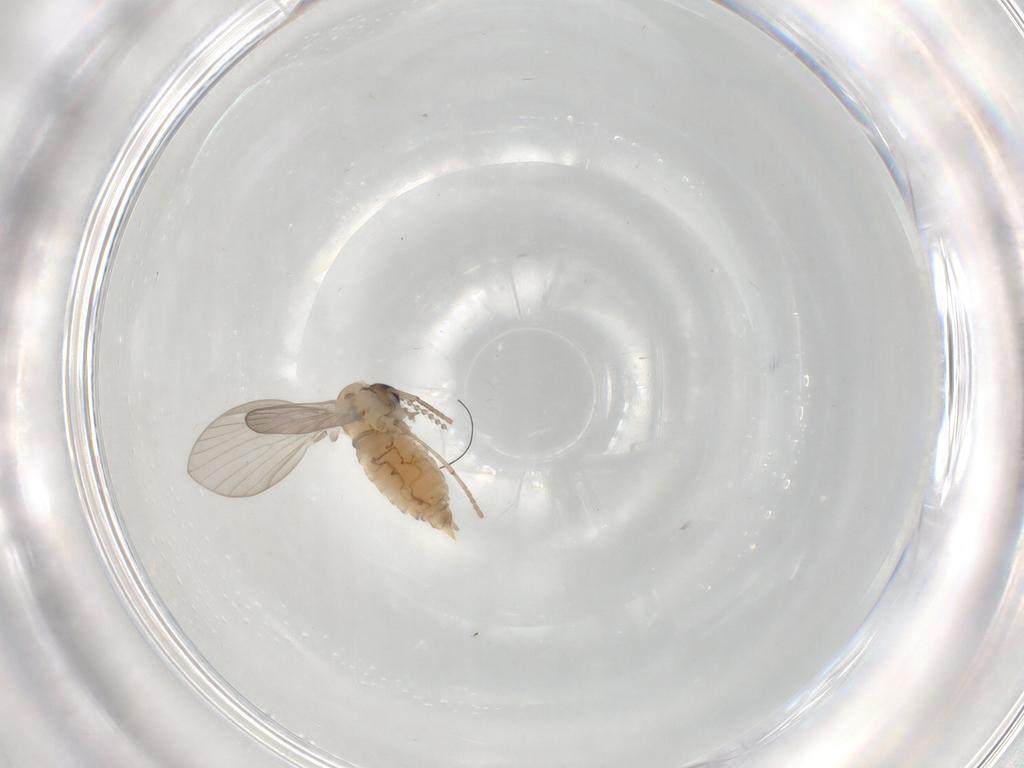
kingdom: Animalia
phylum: Arthropoda
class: Insecta
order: Diptera
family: Psychodidae
